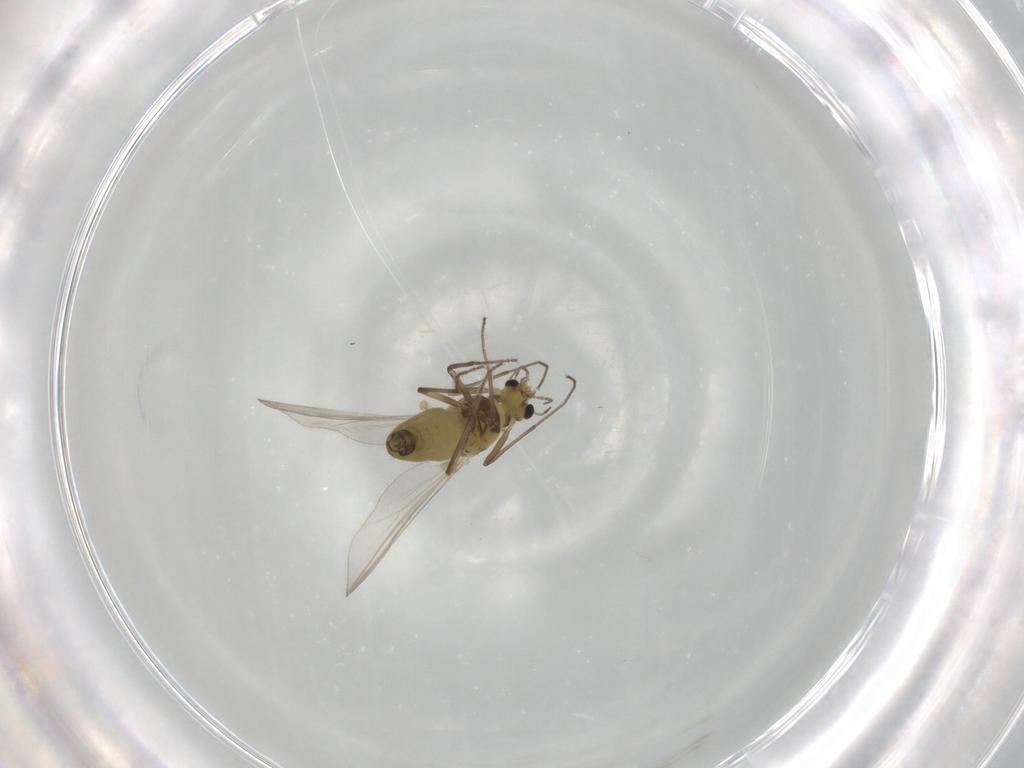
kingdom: Animalia
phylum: Arthropoda
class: Insecta
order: Diptera
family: Chironomidae
